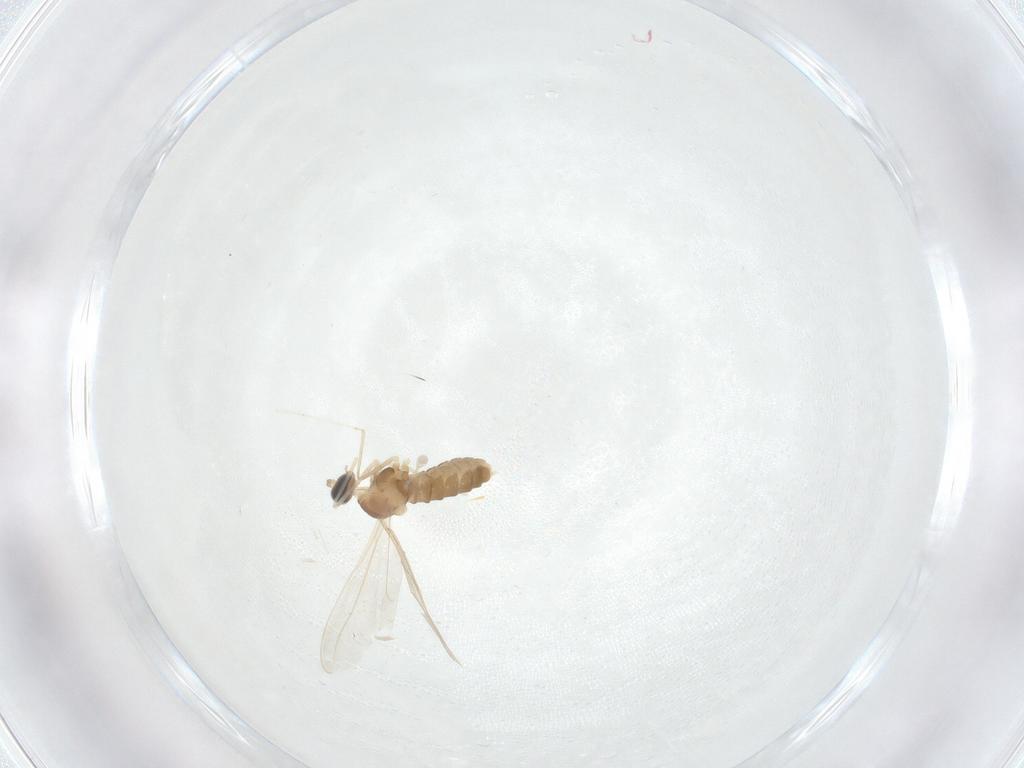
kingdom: Animalia
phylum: Arthropoda
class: Insecta
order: Diptera
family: Cecidomyiidae
